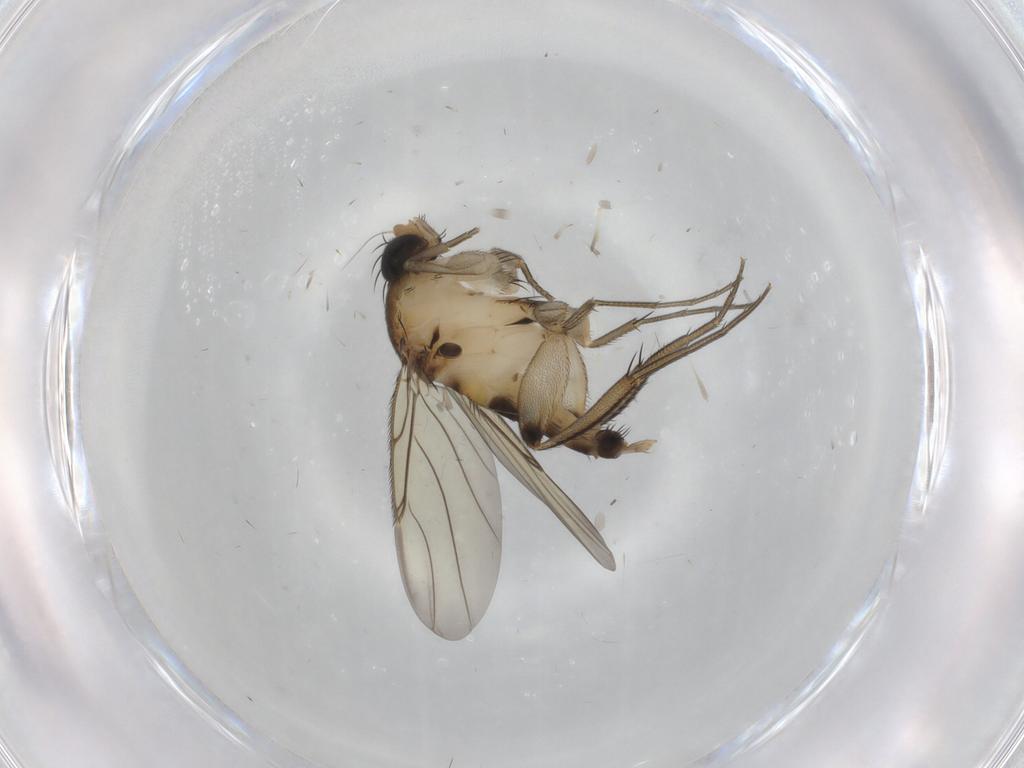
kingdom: Animalia
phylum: Arthropoda
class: Insecta
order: Diptera
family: Phoridae
